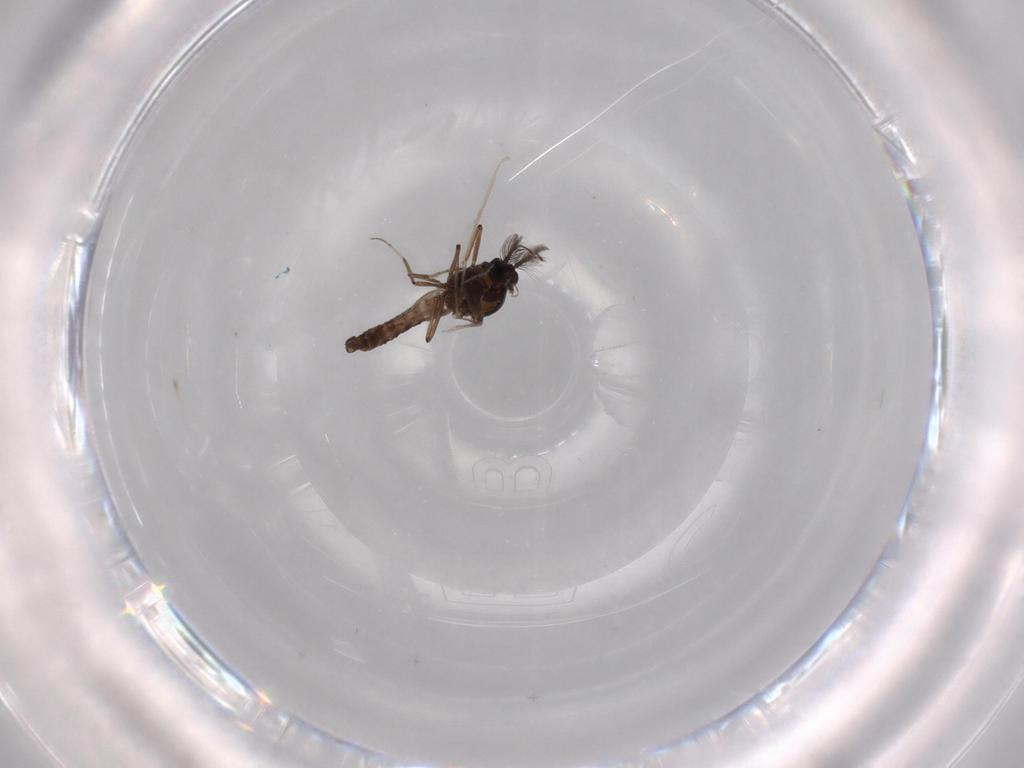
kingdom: Animalia
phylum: Arthropoda
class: Insecta
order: Diptera
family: Ceratopogonidae
